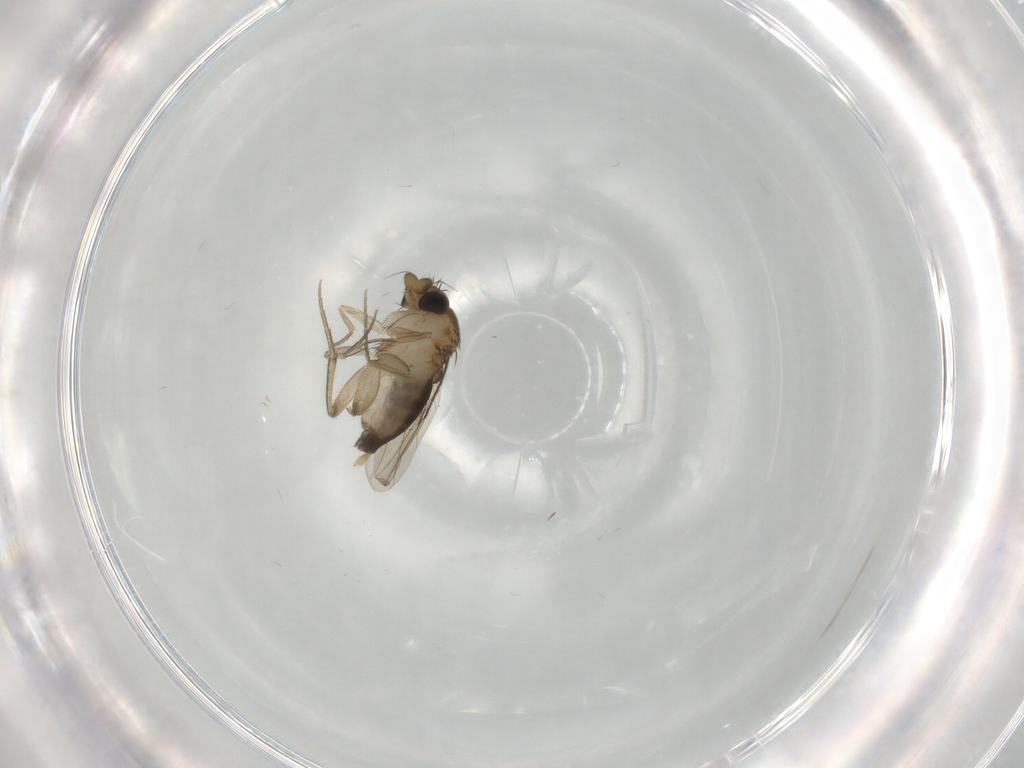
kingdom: Animalia
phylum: Arthropoda
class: Insecta
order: Diptera
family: Phoridae
